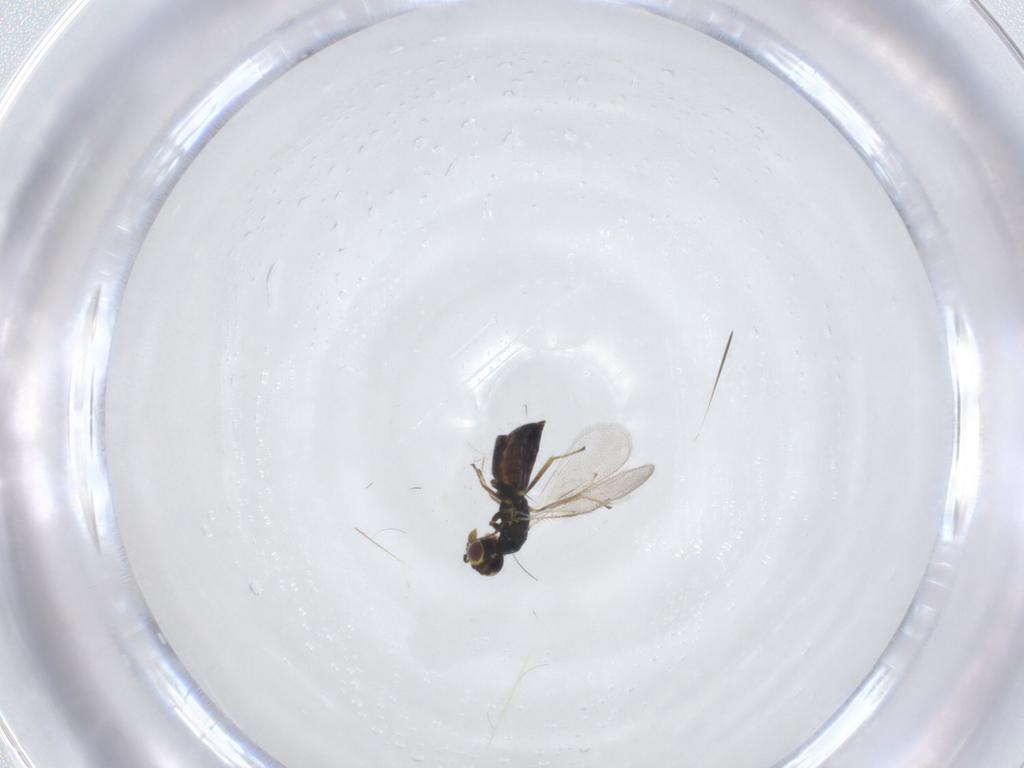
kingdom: Animalia
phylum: Arthropoda
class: Insecta
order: Hymenoptera
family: Eulophidae
